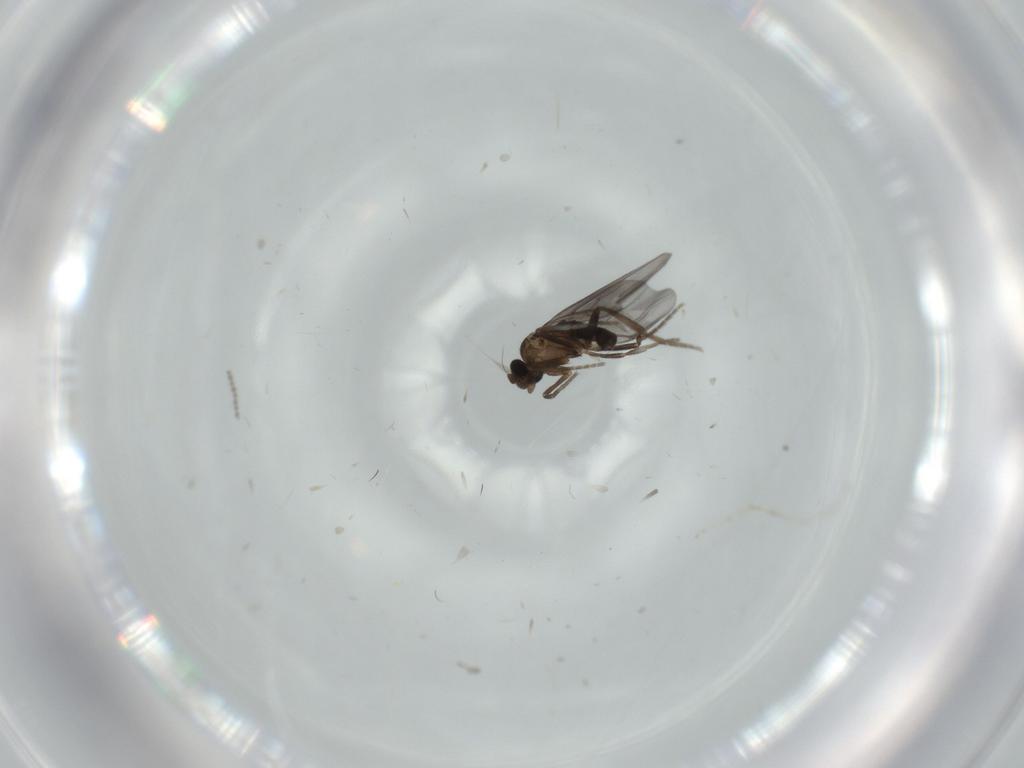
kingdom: Animalia
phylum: Arthropoda
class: Insecta
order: Diptera
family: Phoridae
